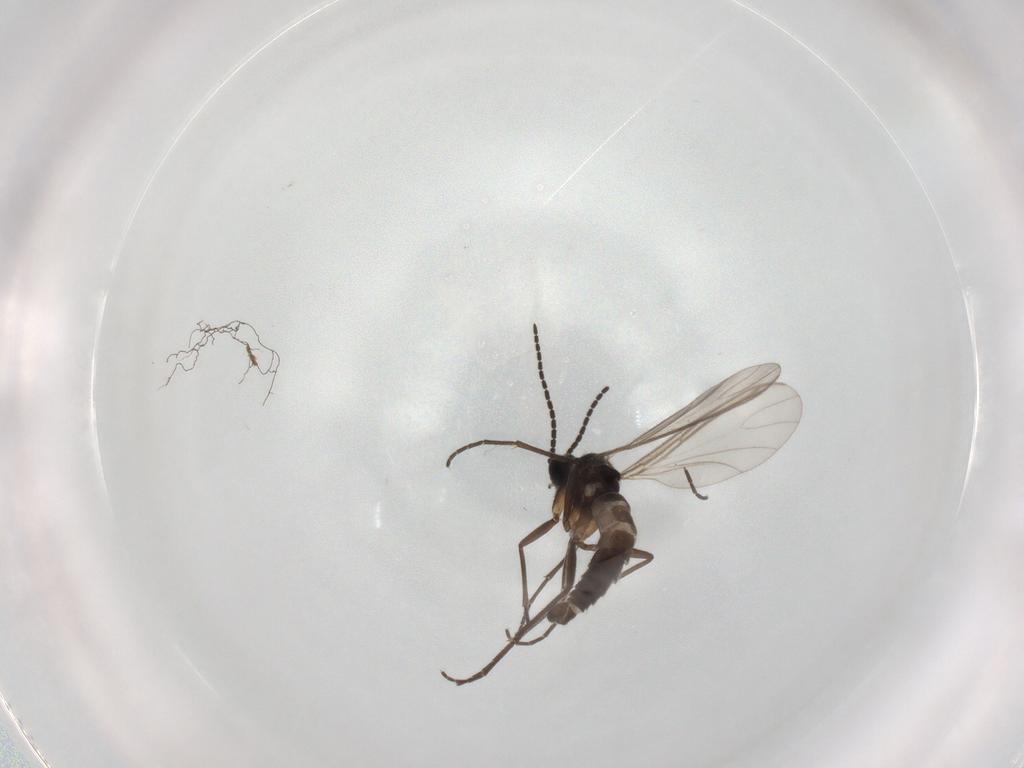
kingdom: Animalia
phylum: Arthropoda
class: Insecta
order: Diptera
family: Sciaridae
